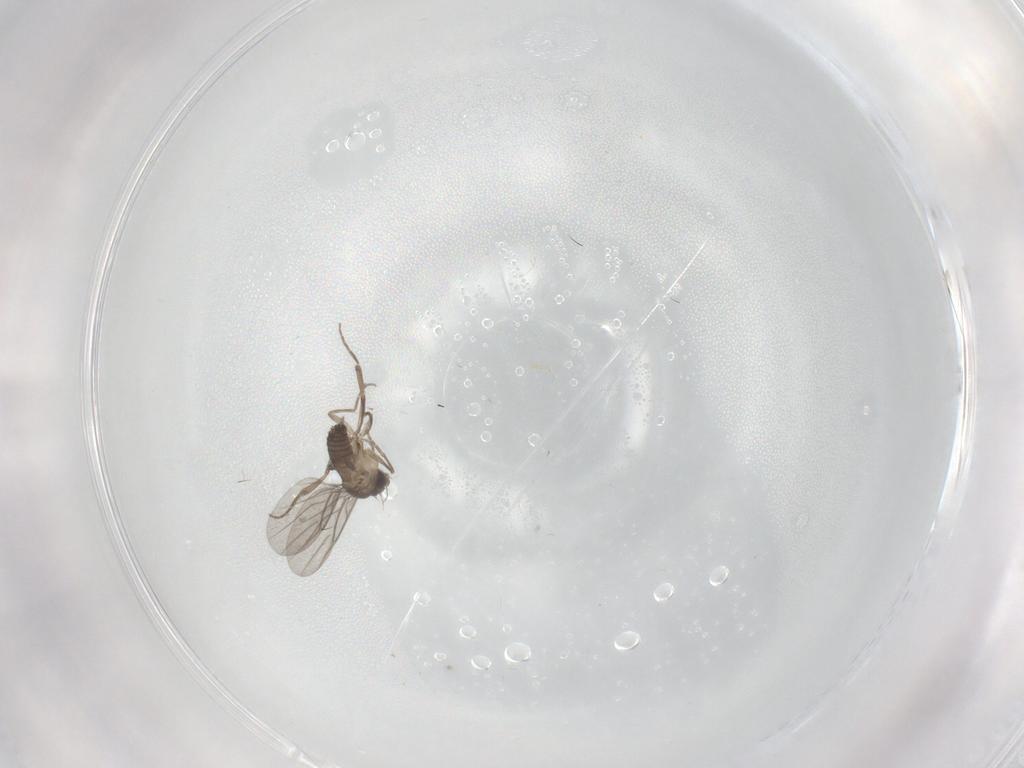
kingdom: Animalia
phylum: Arthropoda
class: Insecta
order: Diptera
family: Phoridae
